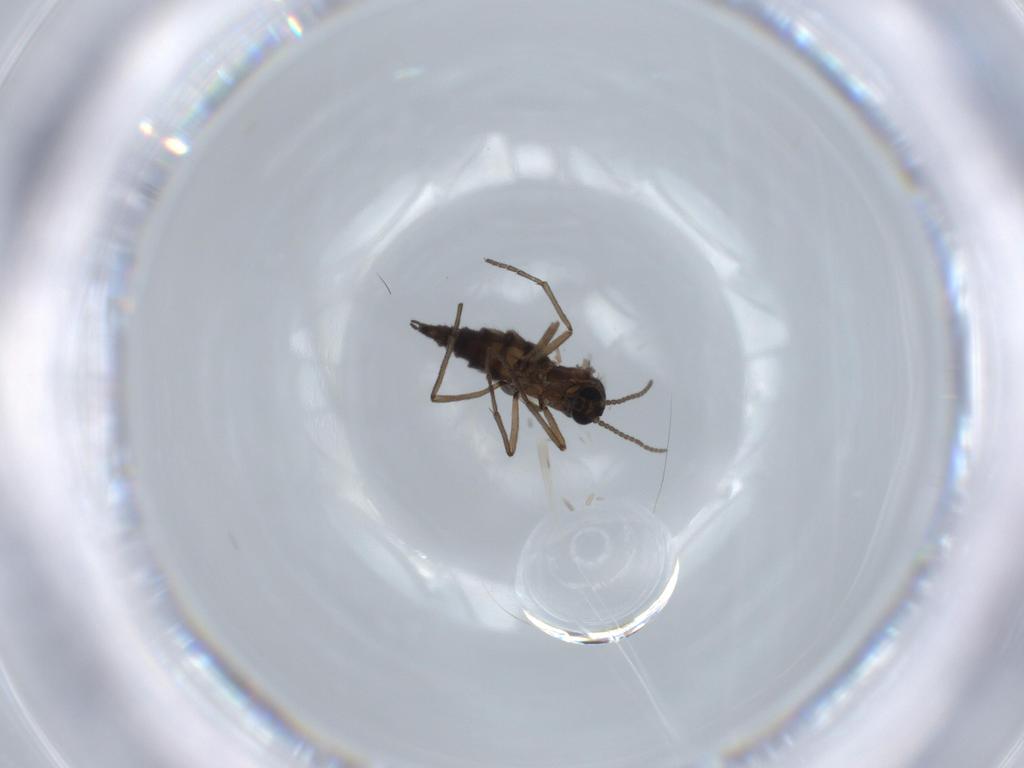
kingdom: Animalia
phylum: Arthropoda
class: Insecta
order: Diptera
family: Sciaridae
